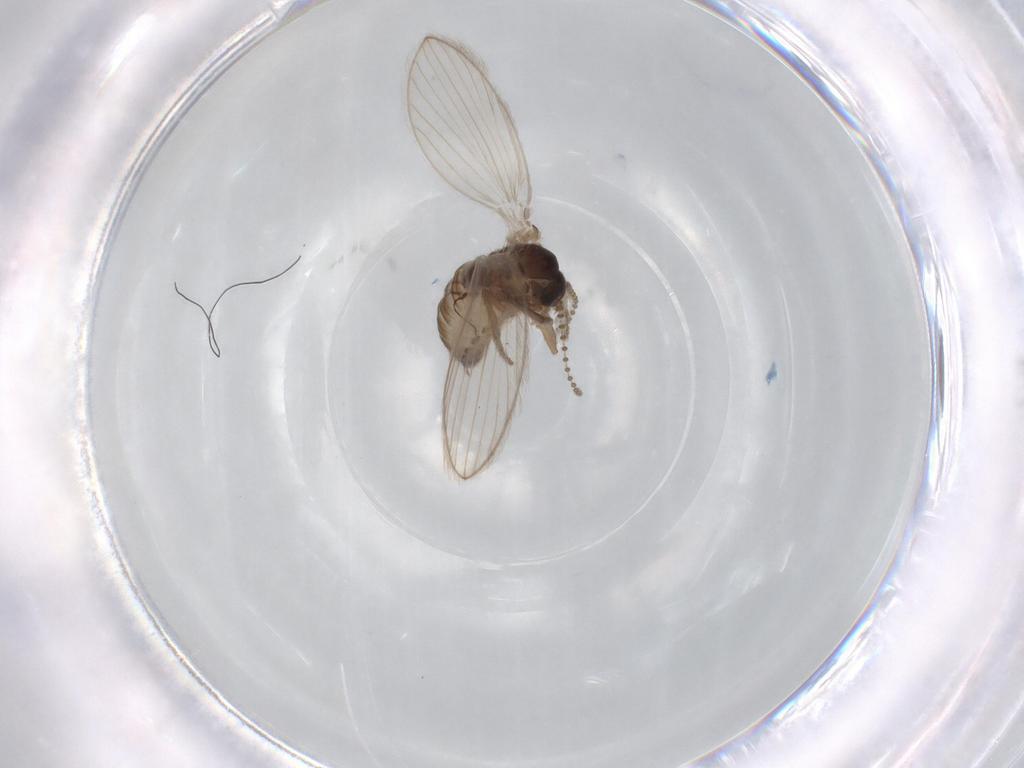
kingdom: Animalia
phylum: Arthropoda
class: Insecta
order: Diptera
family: Psychodidae
